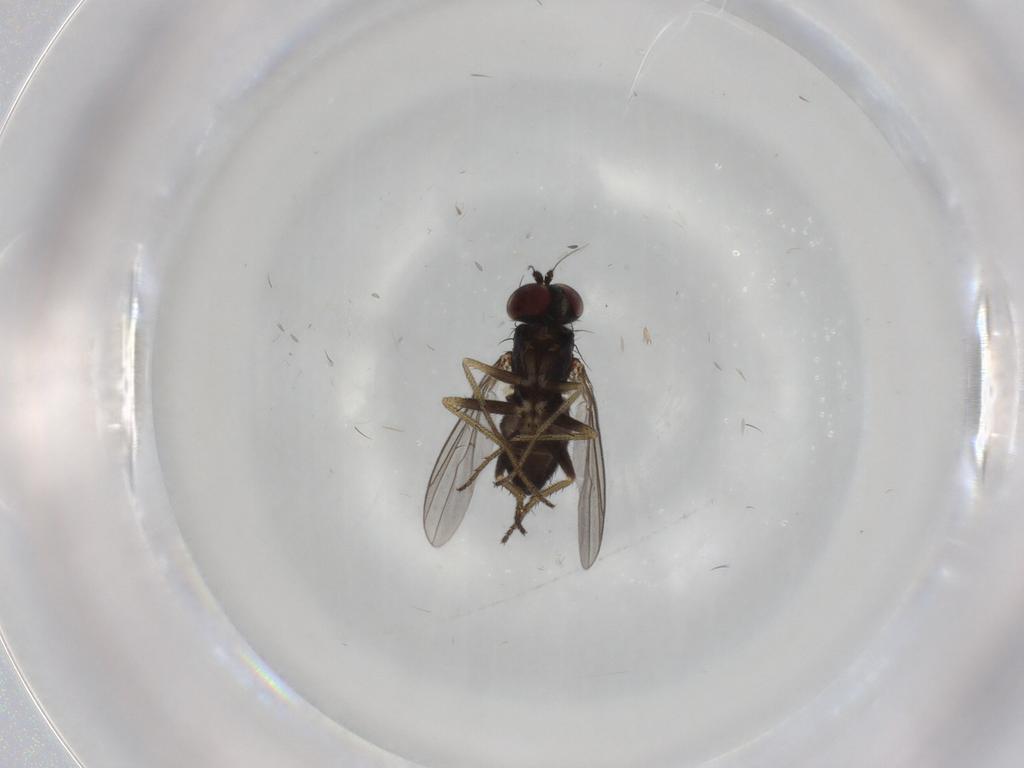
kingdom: Animalia
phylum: Arthropoda
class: Insecta
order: Diptera
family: Dolichopodidae
